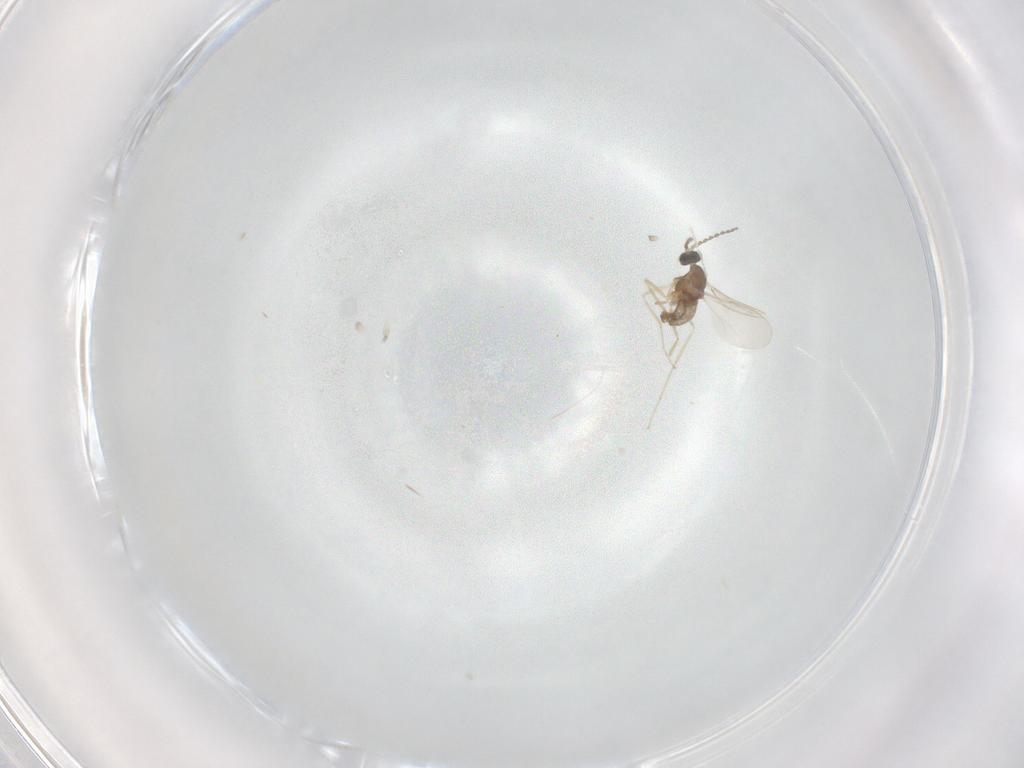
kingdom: Animalia
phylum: Arthropoda
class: Insecta
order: Diptera
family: Cecidomyiidae
